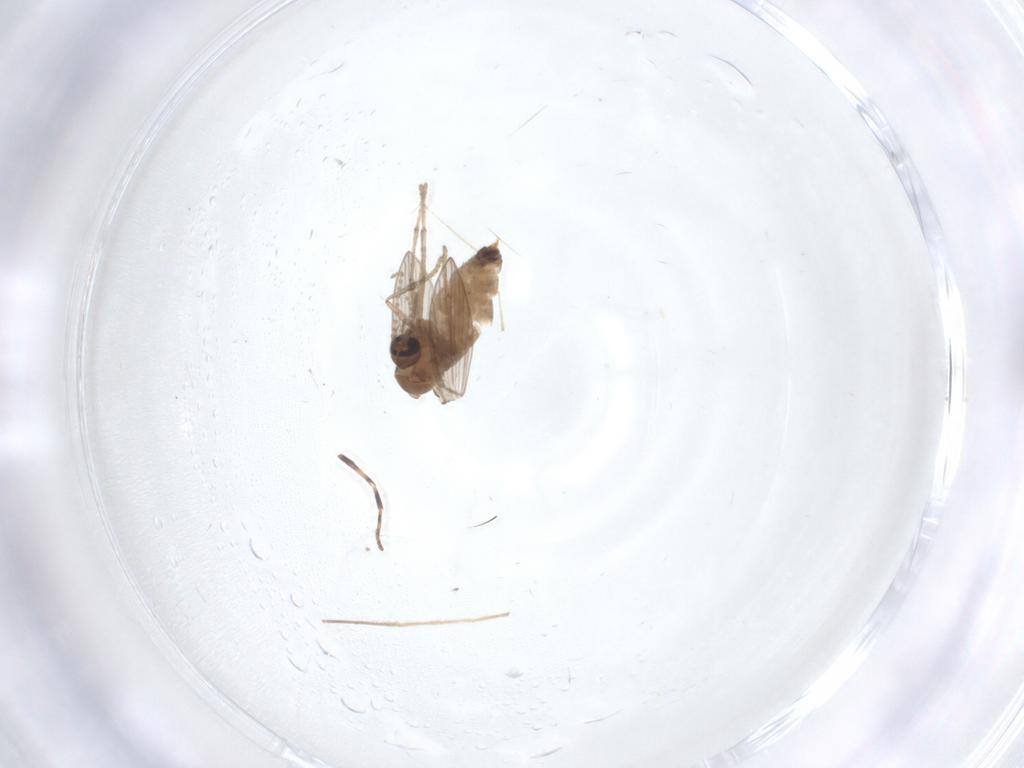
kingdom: Animalia
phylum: Arthropoda
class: Insecta
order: Diptera
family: Psychodidae
